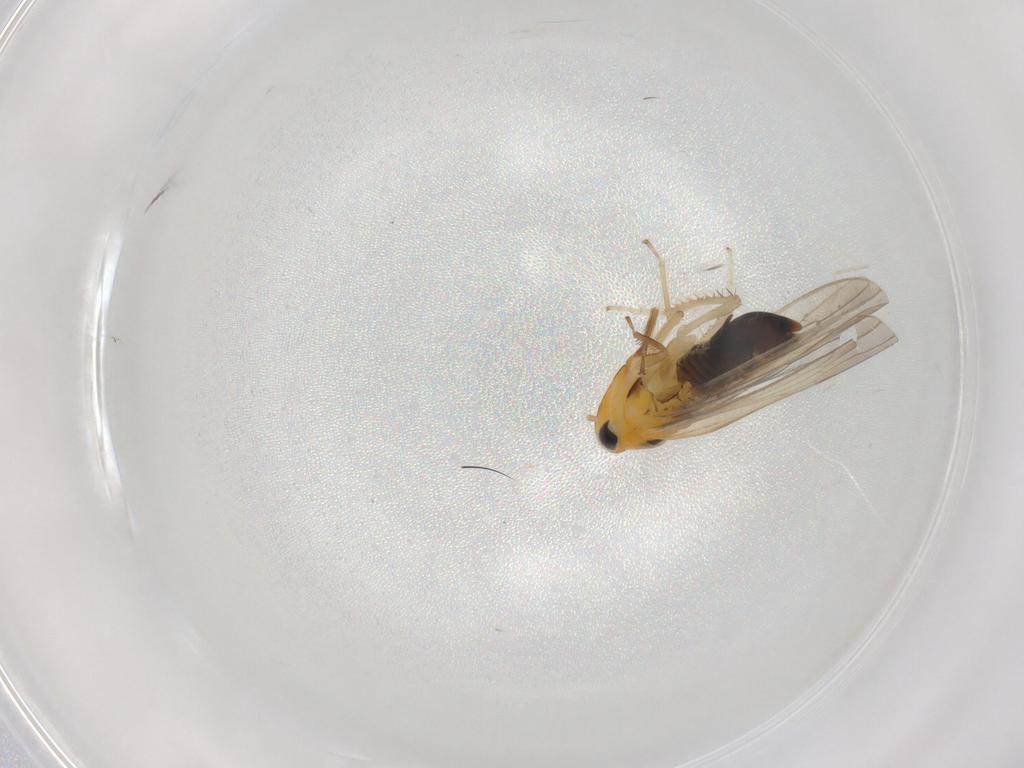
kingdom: Animalia
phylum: Arthropoda
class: Insecta
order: Hemiptera
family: Cicadellidae
